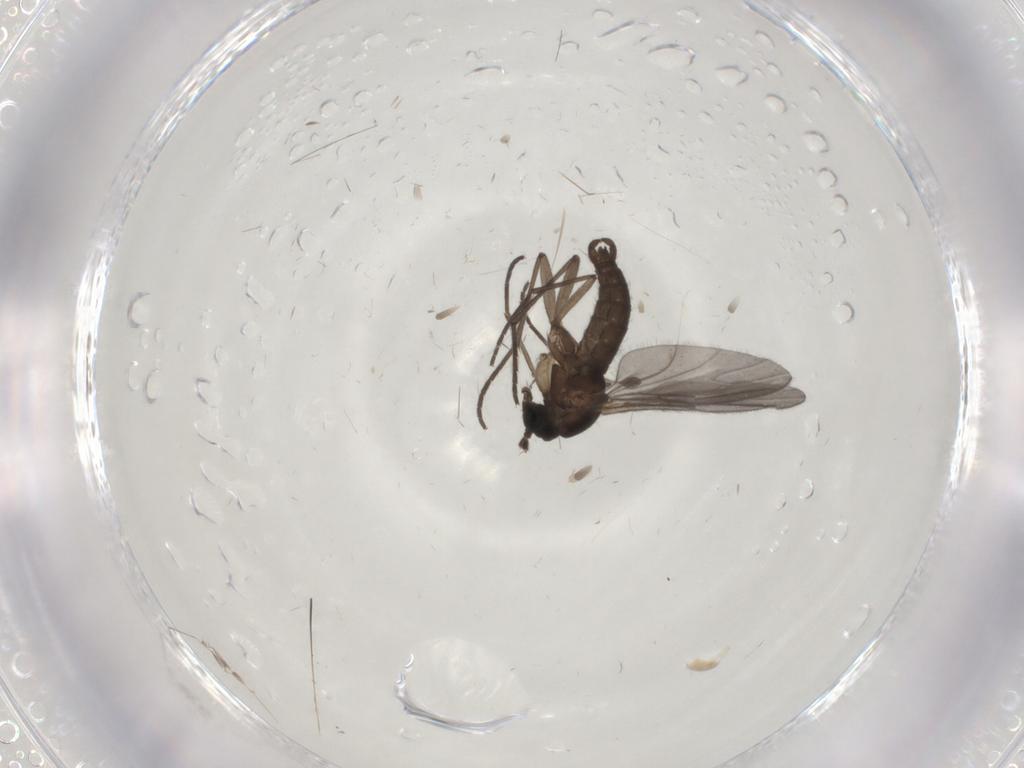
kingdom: Animalia
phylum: Arthropoda
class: Insecta
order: Diptera
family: Sciaridae
